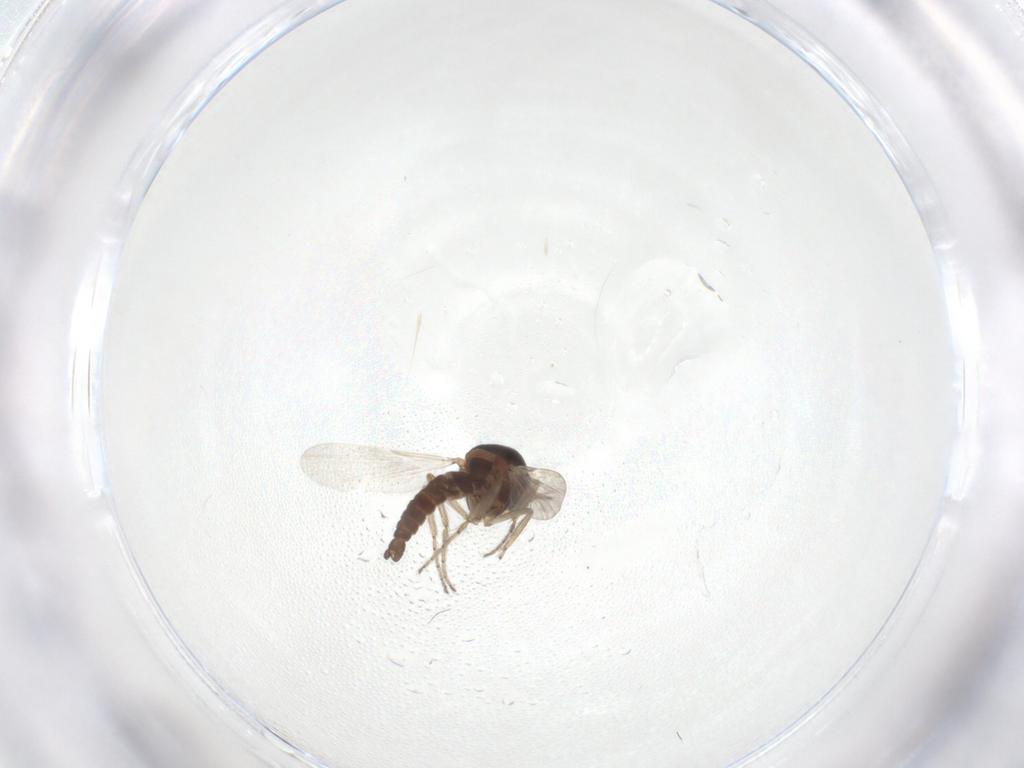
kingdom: Animalia
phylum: Arthropoda
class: Insecta
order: Diptera
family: Ceratopogonidae
